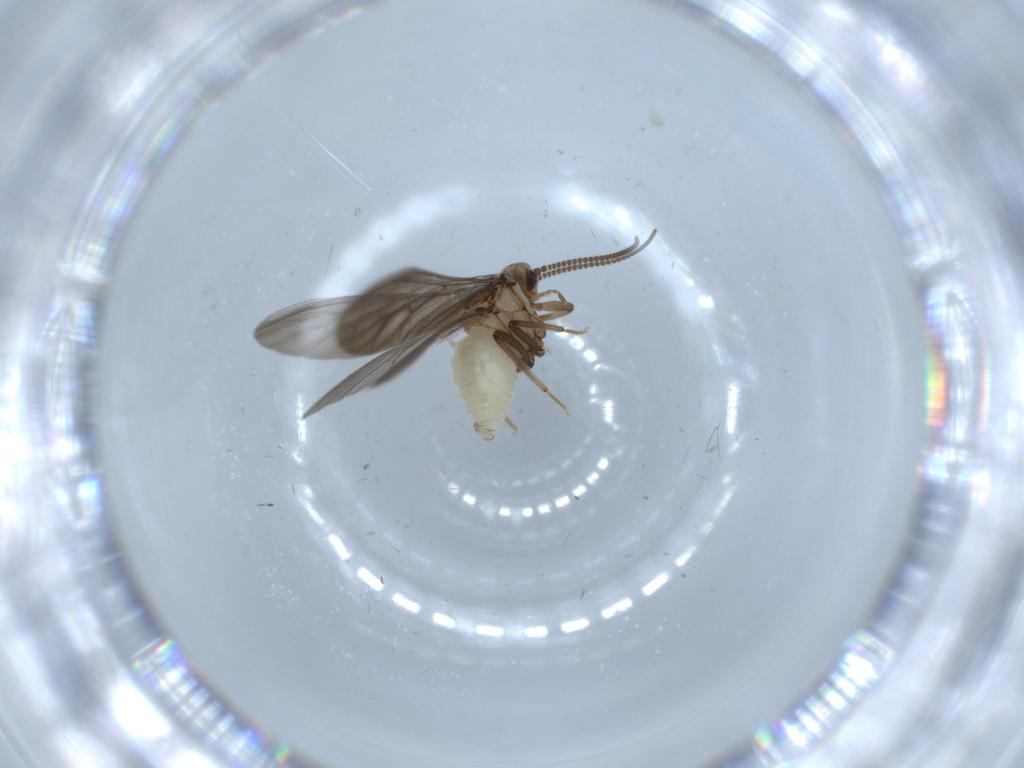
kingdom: Animalia
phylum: Arthropoda
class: Insecta
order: Neuroptera
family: Coniopterygidae
